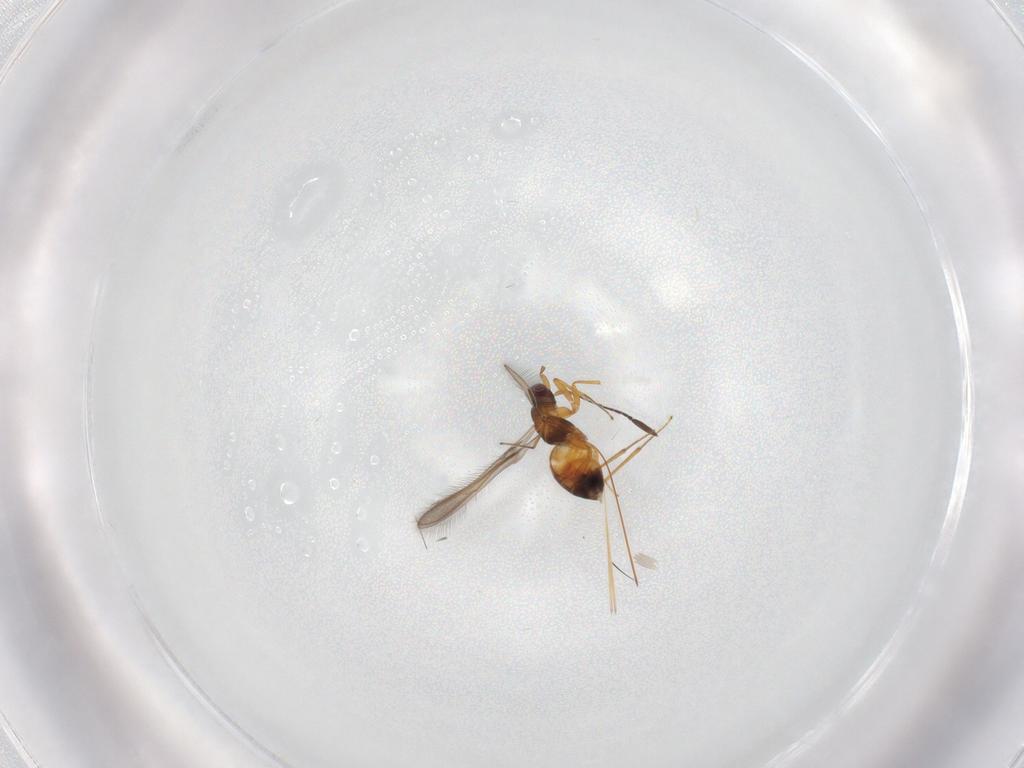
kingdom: Animalia
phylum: Arthropoda
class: Insecta
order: Hymenoptera
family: Mymaridae
